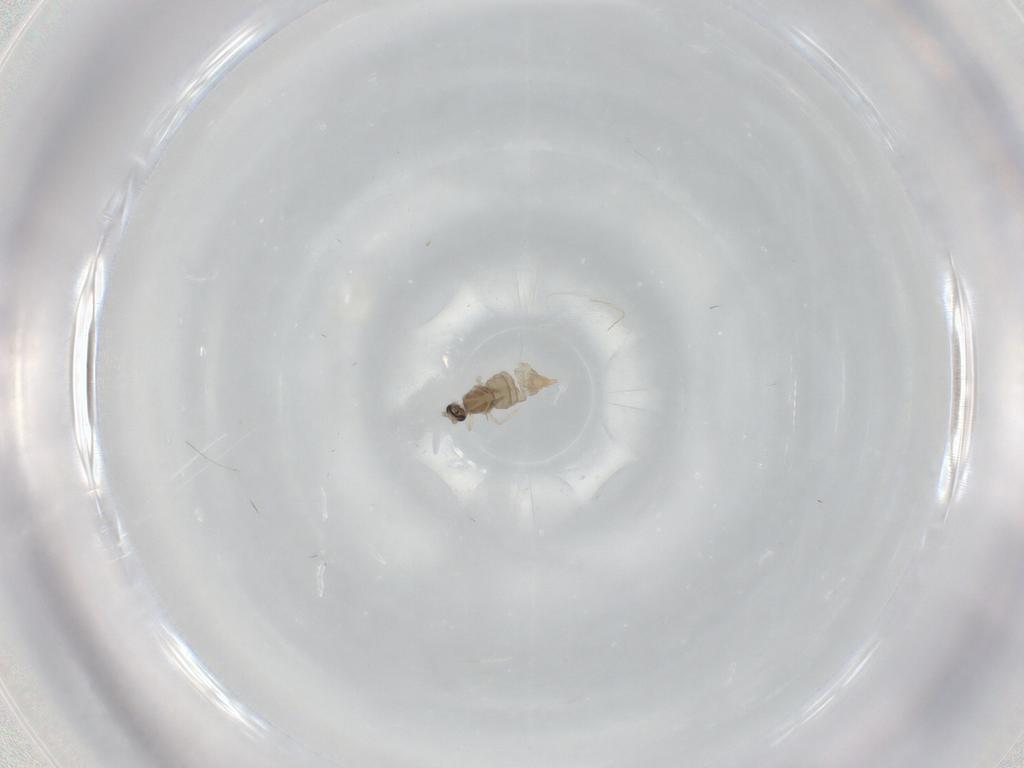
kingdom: Animalia
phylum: Arthropoda
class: Insecta
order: Diptera
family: Cecidomyiidae
